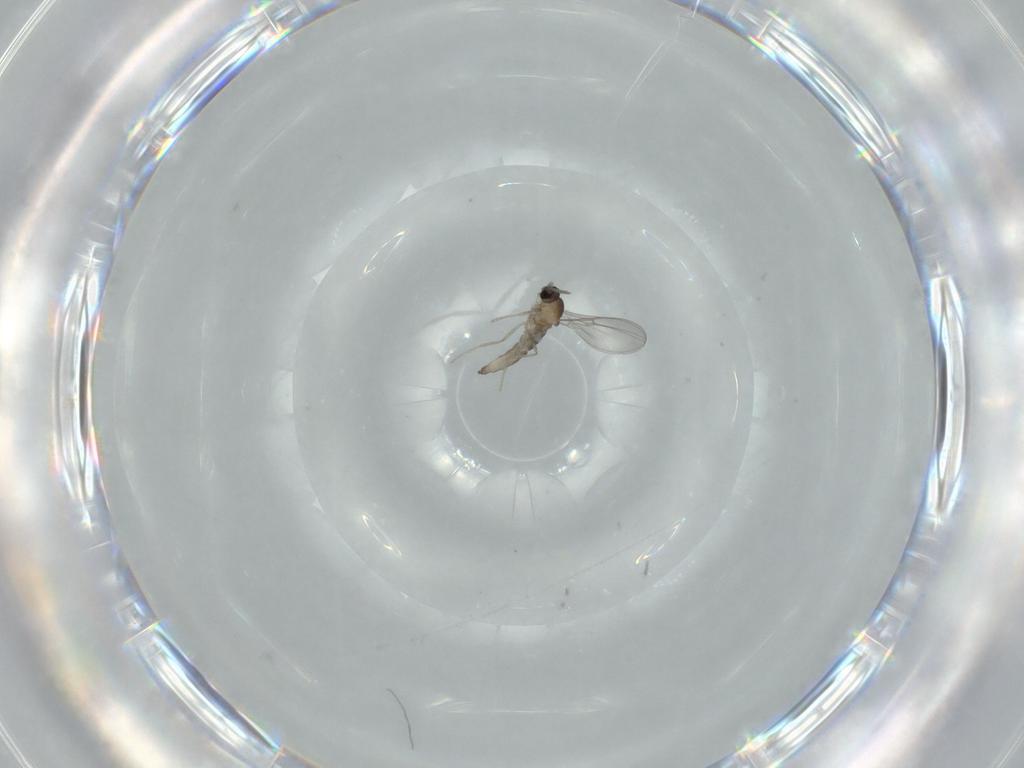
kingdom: Animalia
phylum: Arthropoda
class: Insecta
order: Diptera
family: Cecidomyiidae
